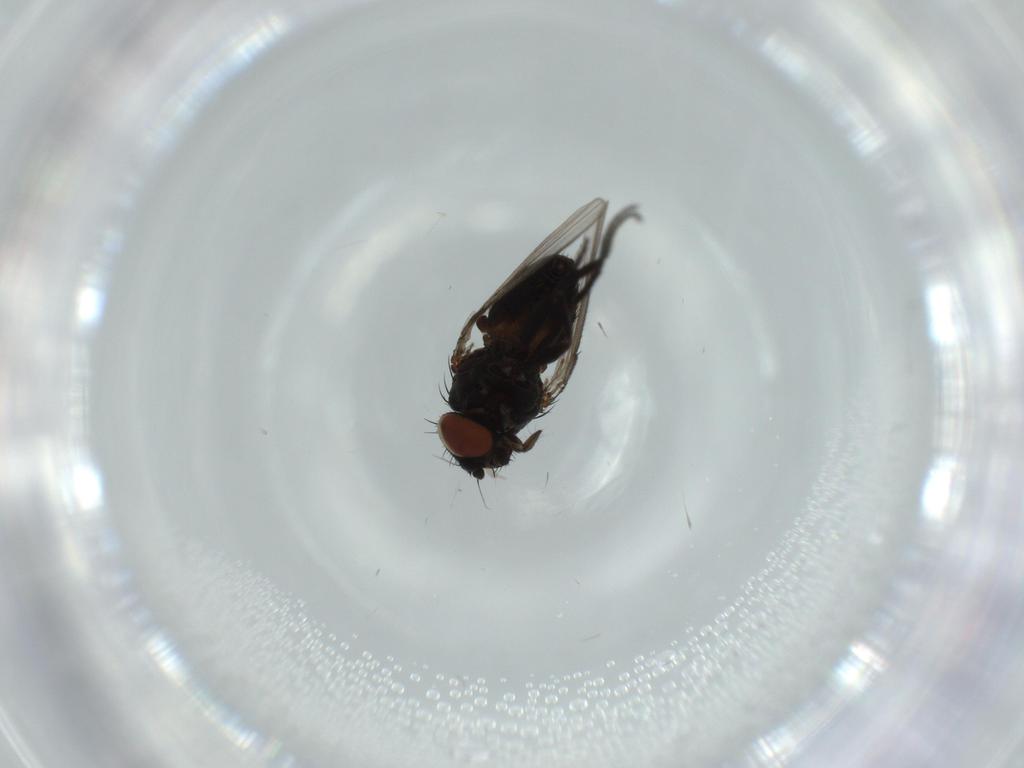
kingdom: Animalia
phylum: Arthropoda
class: Insecta
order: Diptera
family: Milichiidae
